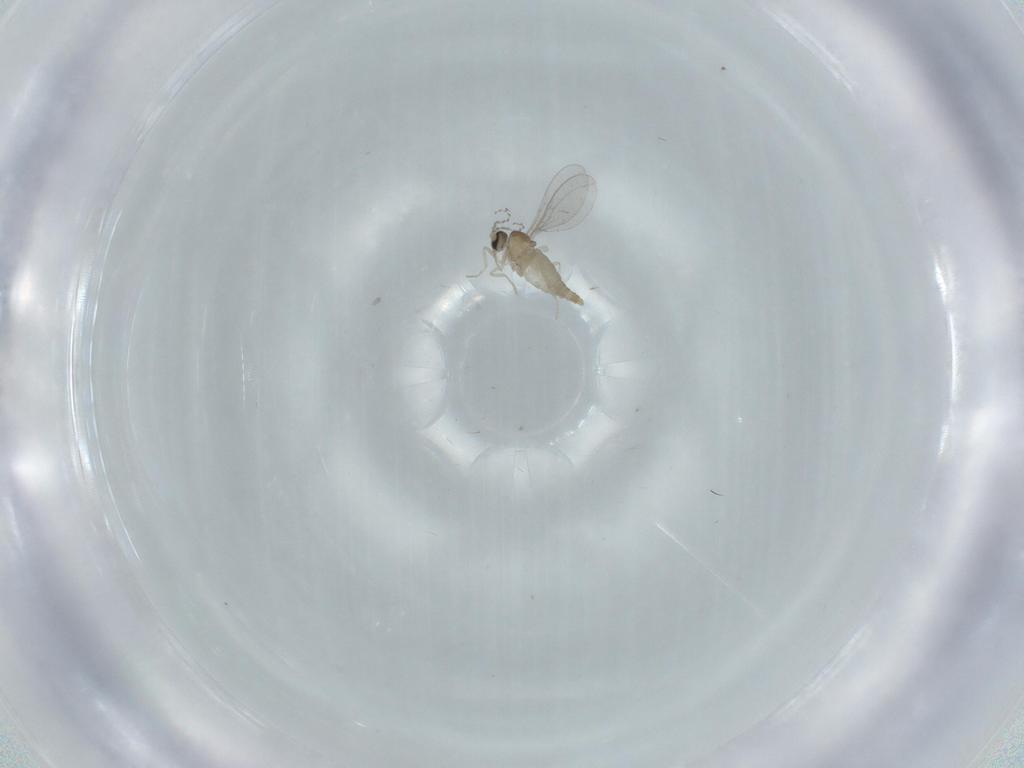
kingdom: Animalia
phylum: Arthropoda
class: Insecta
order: Diptera
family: Cecidomyiidae
